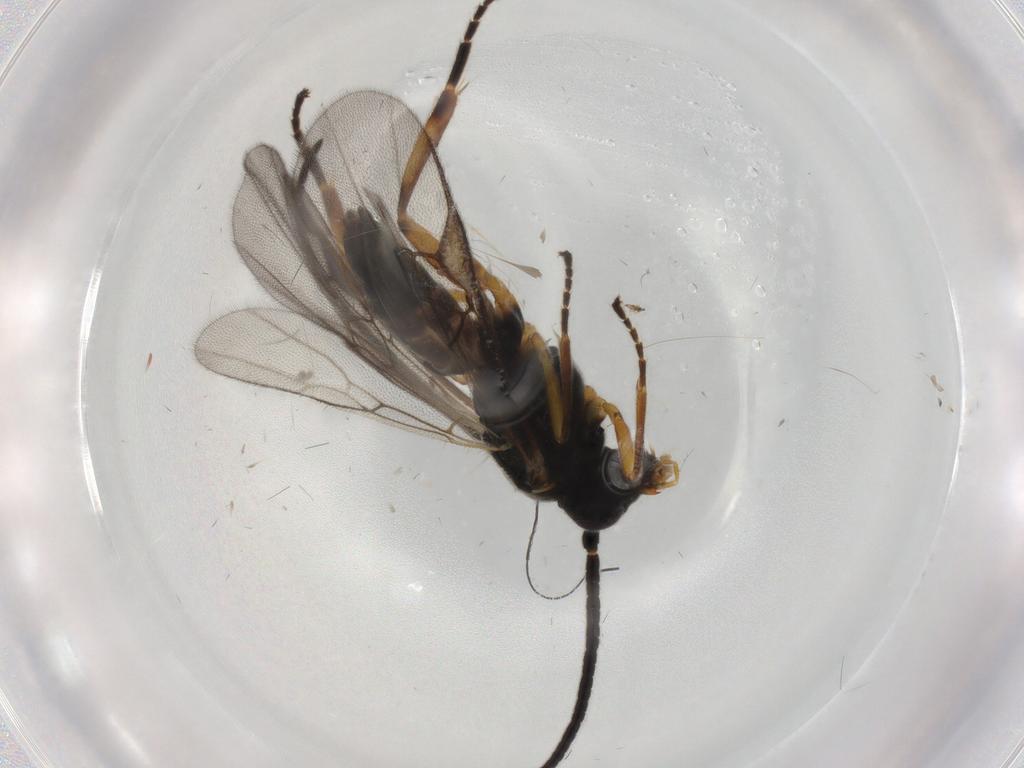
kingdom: Animalia
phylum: Arthropoda
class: Insecta
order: Hymenoptera
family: Braconidae
